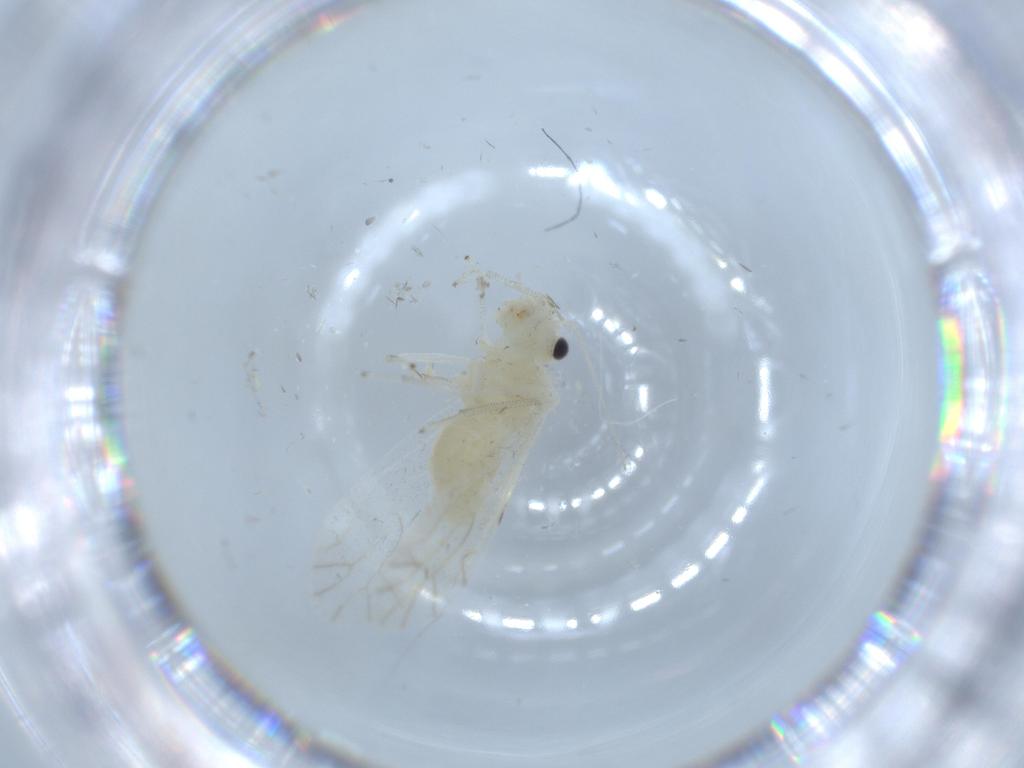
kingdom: Animalia
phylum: Arthropoda
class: Insecta
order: Psocodea
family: Caeciliusidae
